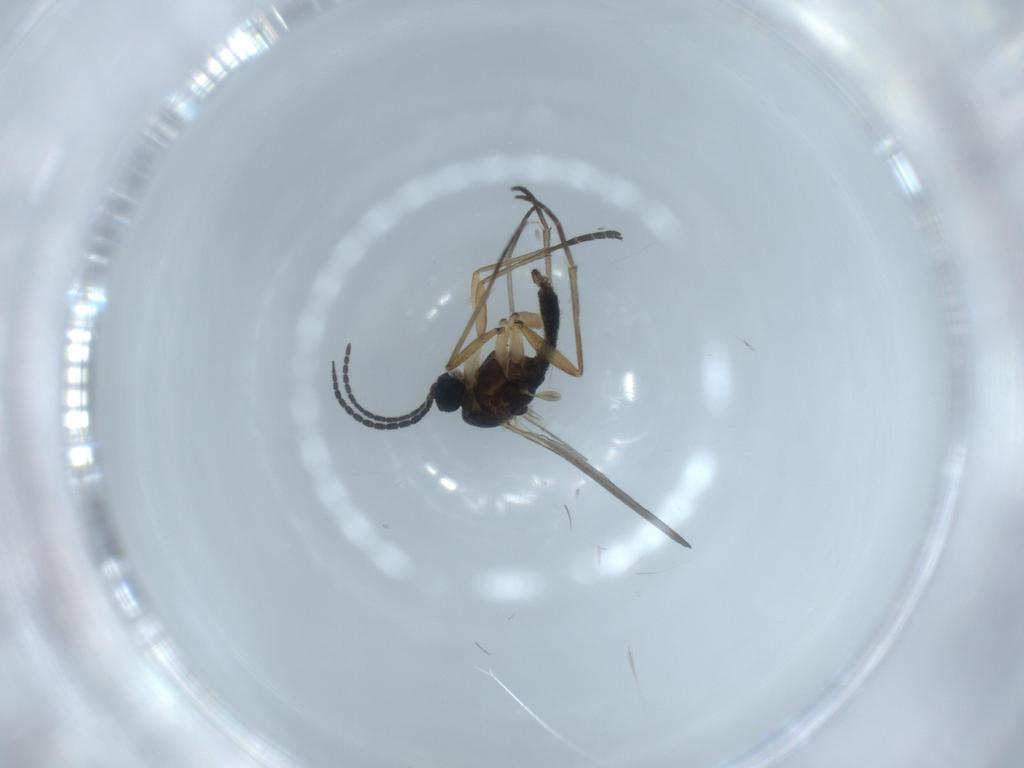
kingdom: Animalia
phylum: Arthropoda
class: Insecta
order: Diptera
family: Sciaridae
